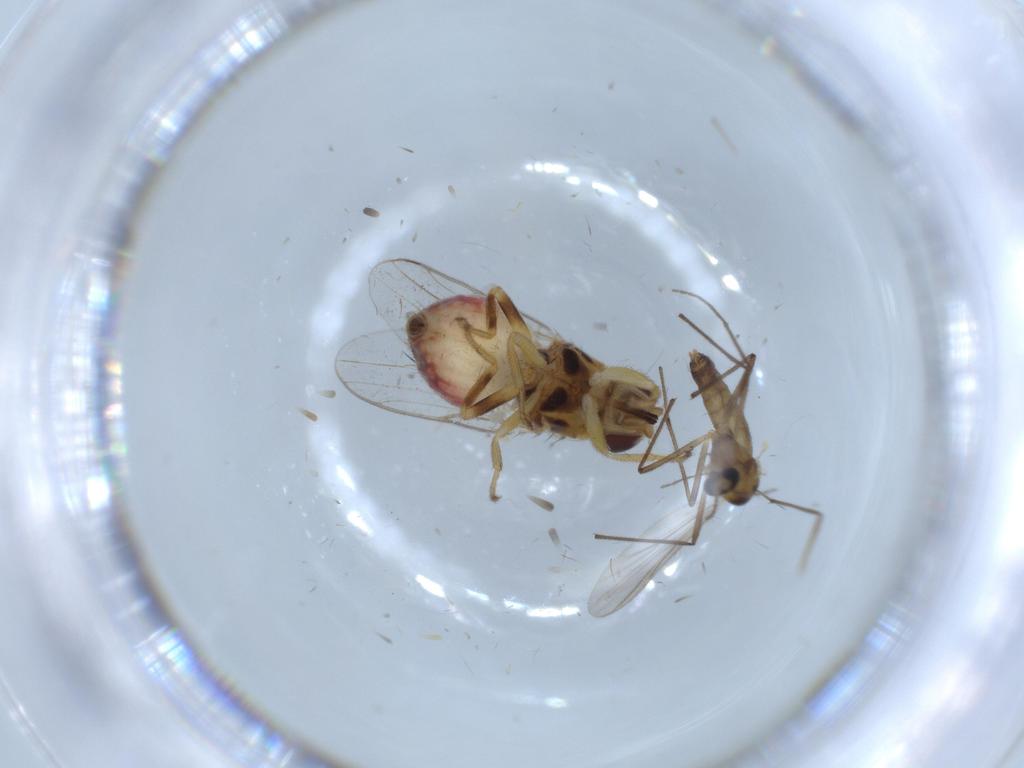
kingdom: Animalia
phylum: Arthropoda
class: Insecta
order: Diptera
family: Chironomidae
